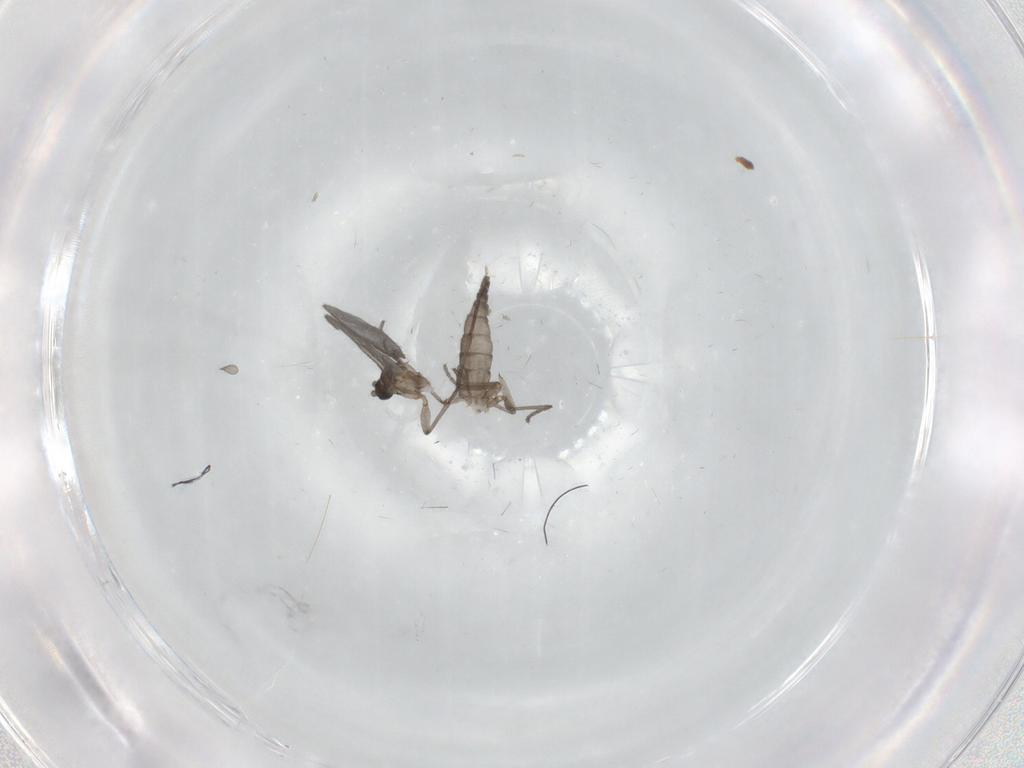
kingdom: Animalia
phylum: Arthropoda
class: Insecta
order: Diptera
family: Sciaridae
